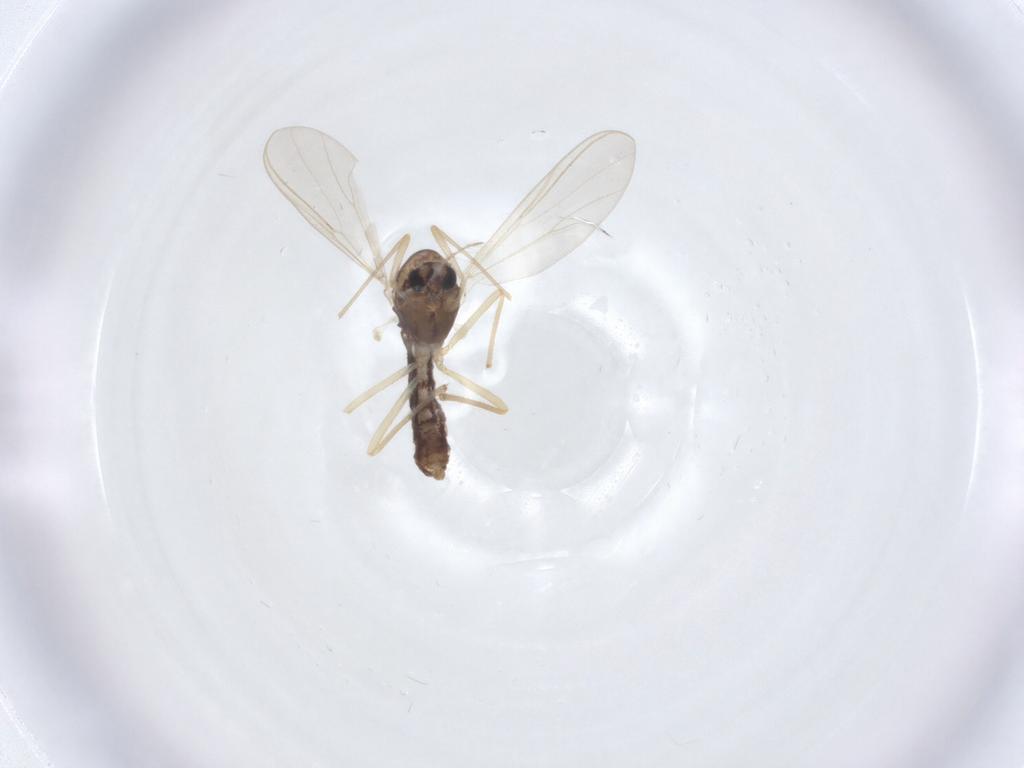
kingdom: Animalia
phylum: Arthropoda
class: Insecta
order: Diptera
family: Chironomidae
